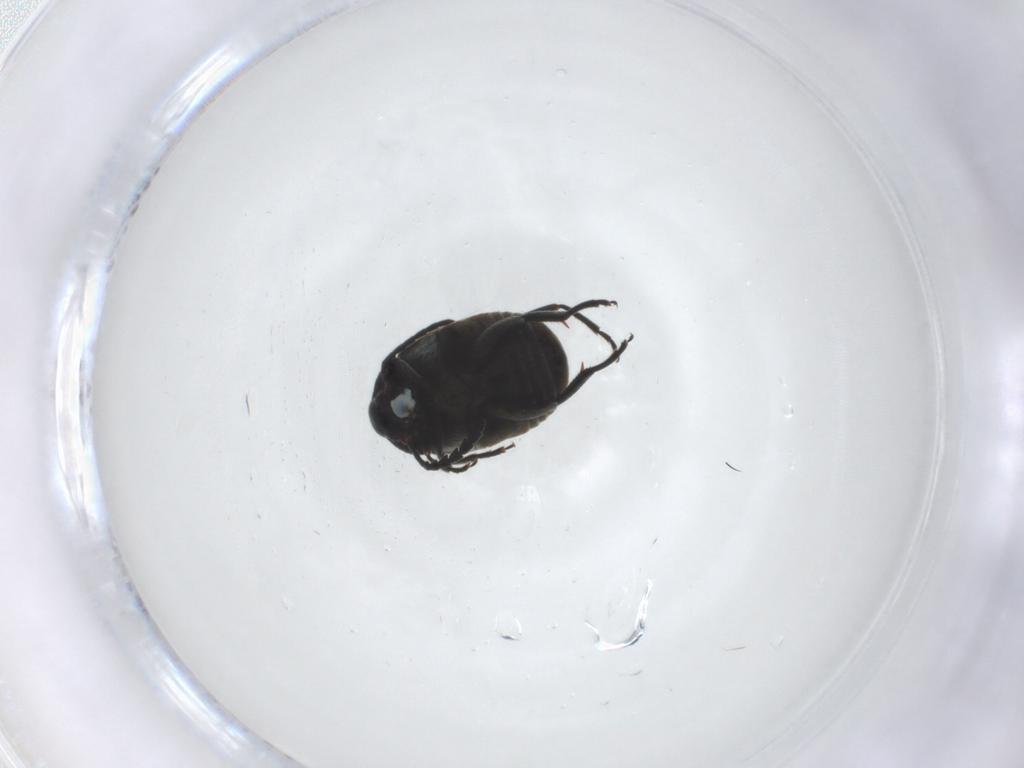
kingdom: Animalia
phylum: Arthropoda
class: Insecta
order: Coleoptera
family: Chrysomelidae
